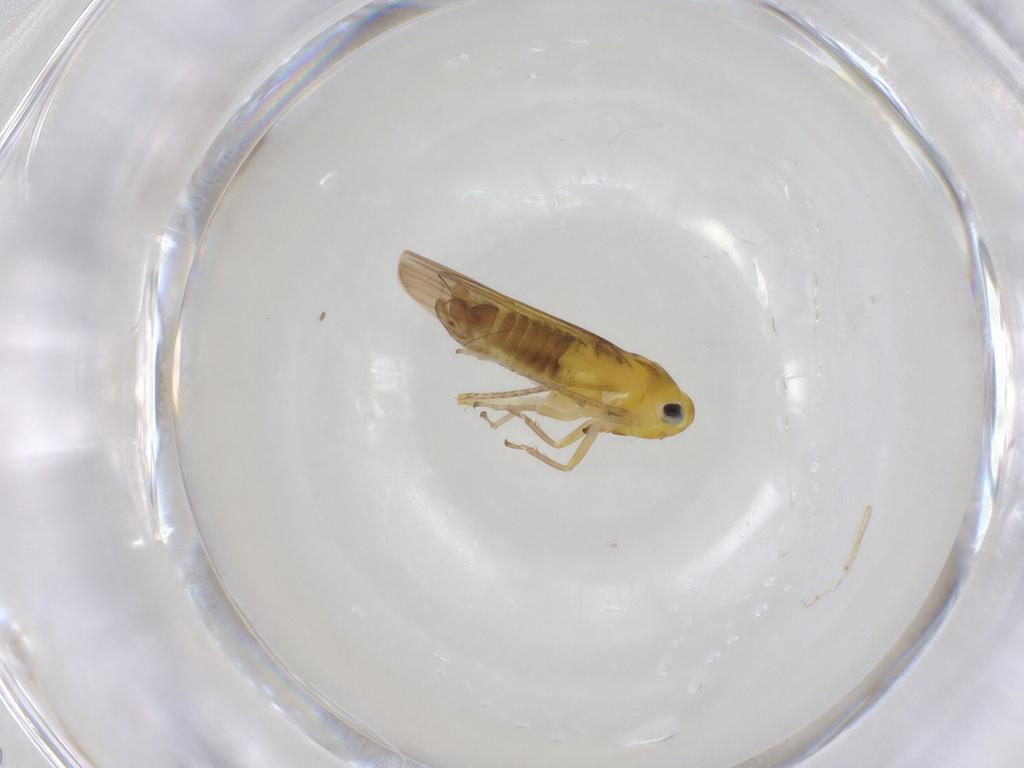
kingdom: Animalia
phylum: Arthropoda
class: Insecta
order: Hemiptera
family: Cicadellidae
